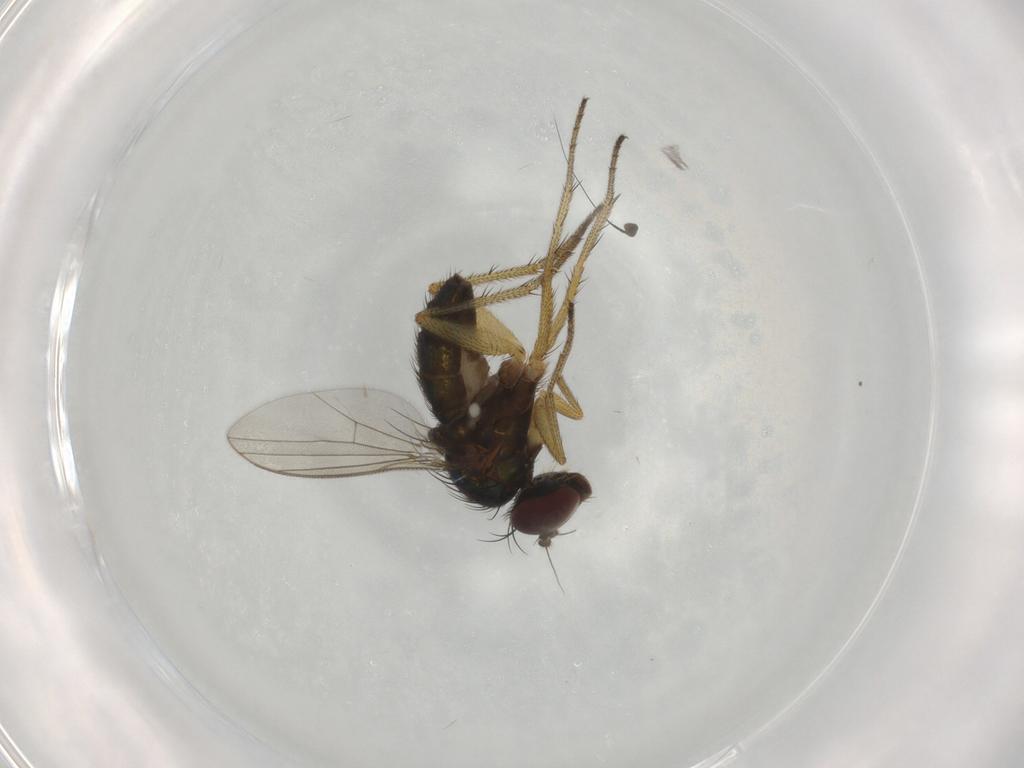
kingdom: Animalia
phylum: Arthropoda
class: Insecta
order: Diptera
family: Dolichopodidae
